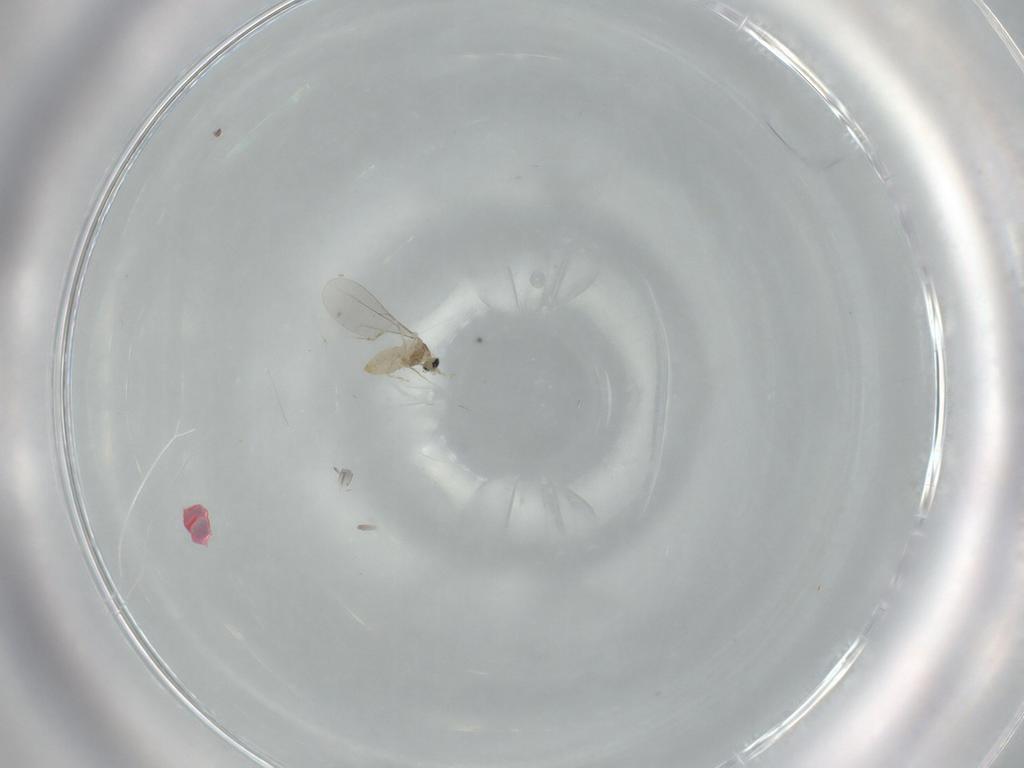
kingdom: Animalia
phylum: Arthropoda
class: Insecta
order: Diptera
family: Cecidomyiidae
